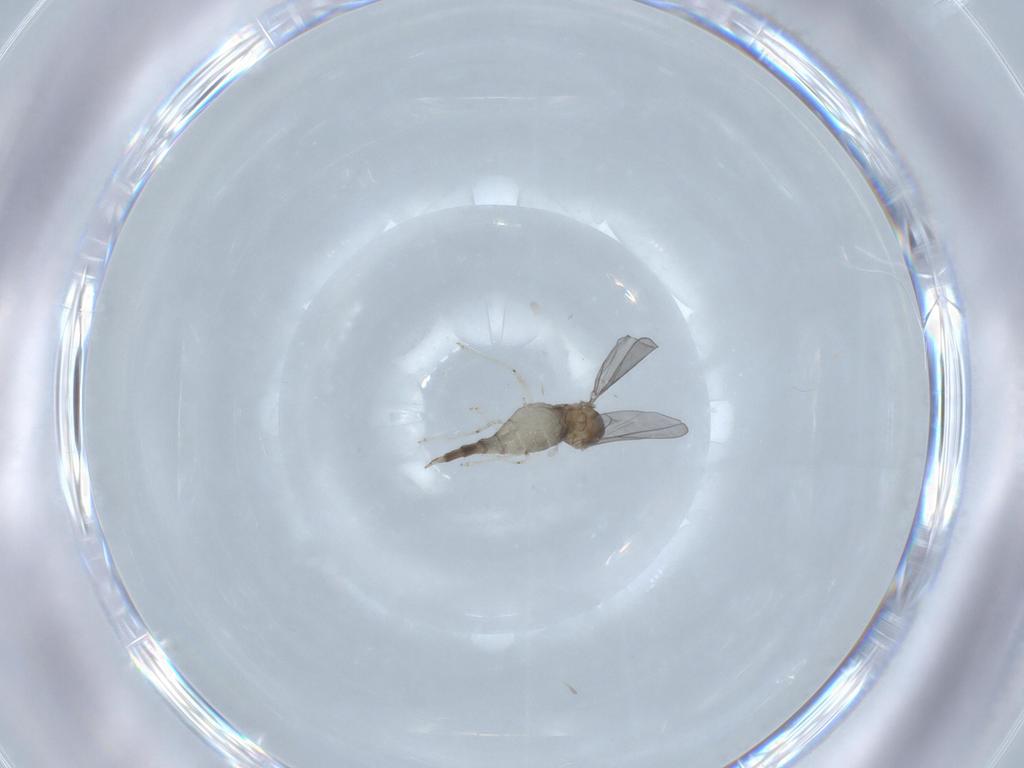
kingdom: Animalia
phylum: Arthropoda
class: Insecta
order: Diptera
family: Cecidomyiidae
